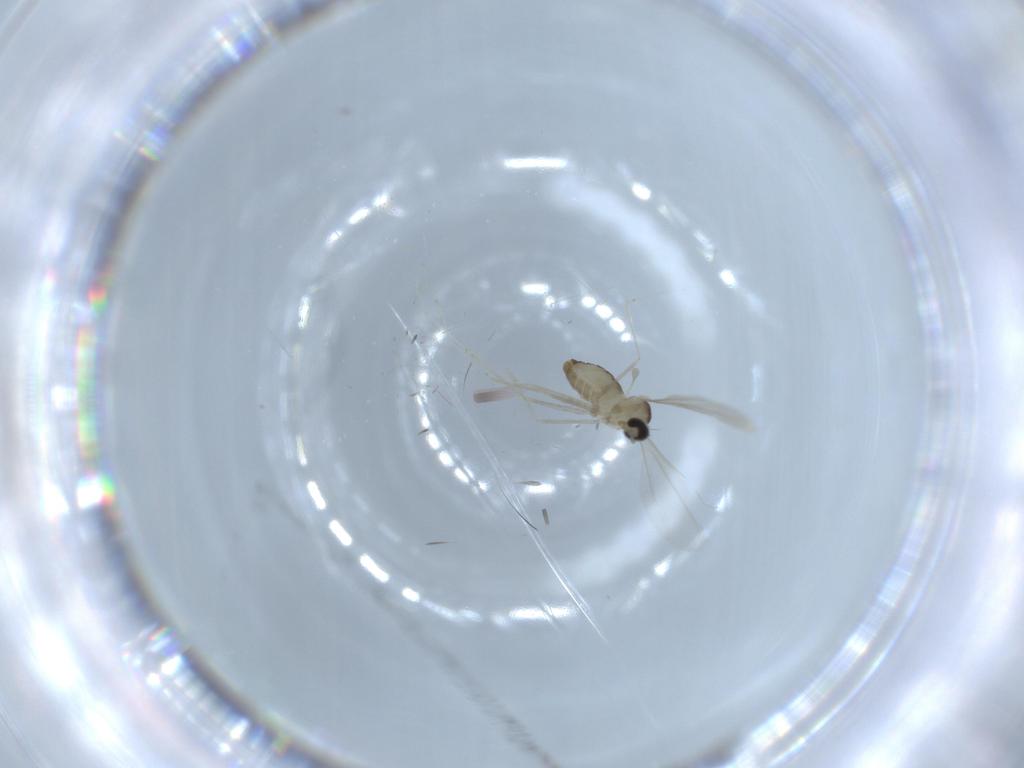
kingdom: Animalia
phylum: Arthropoda
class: Insecta
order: Diptera
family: Cecidomyiidae
